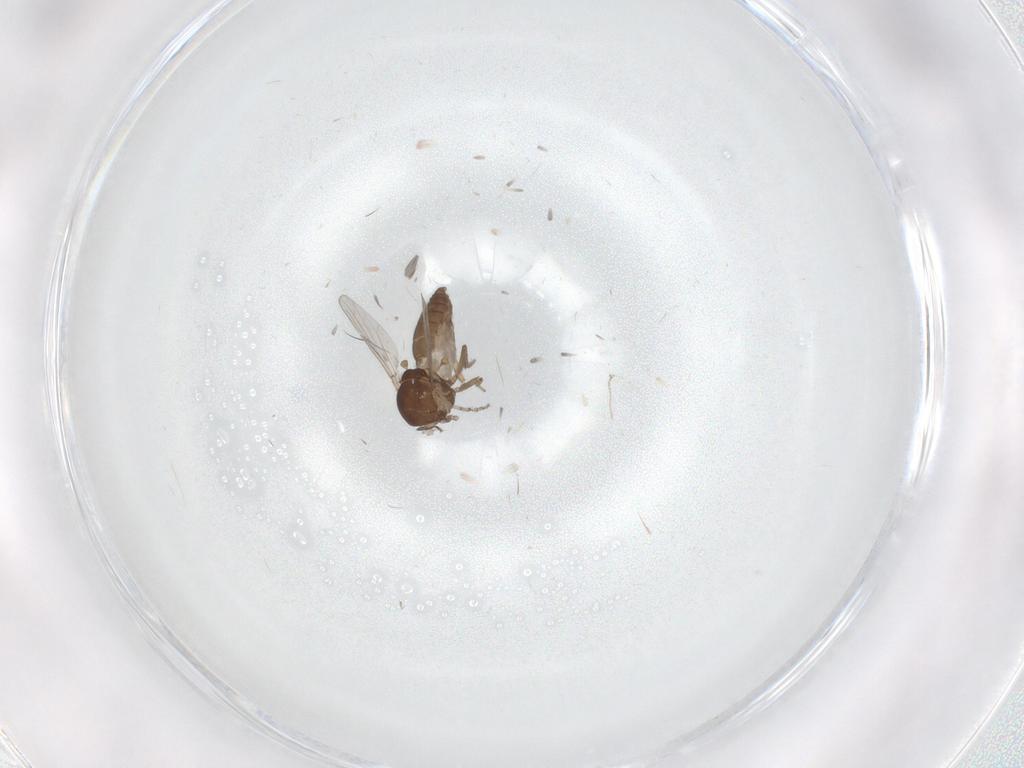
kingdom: Animalia
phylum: Arthropoda
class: Insecta
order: Diptera
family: Ceratopogonidae
